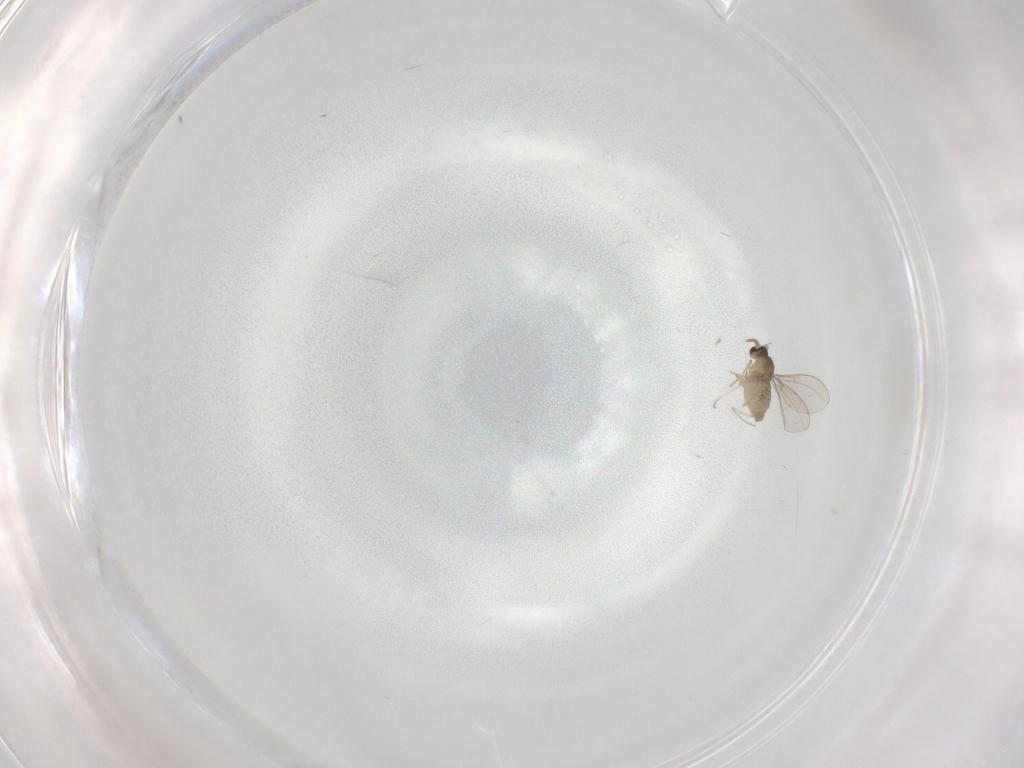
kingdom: Animalia
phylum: Arthropoda
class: Insecta
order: Diptera
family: Cecidomyiidae
